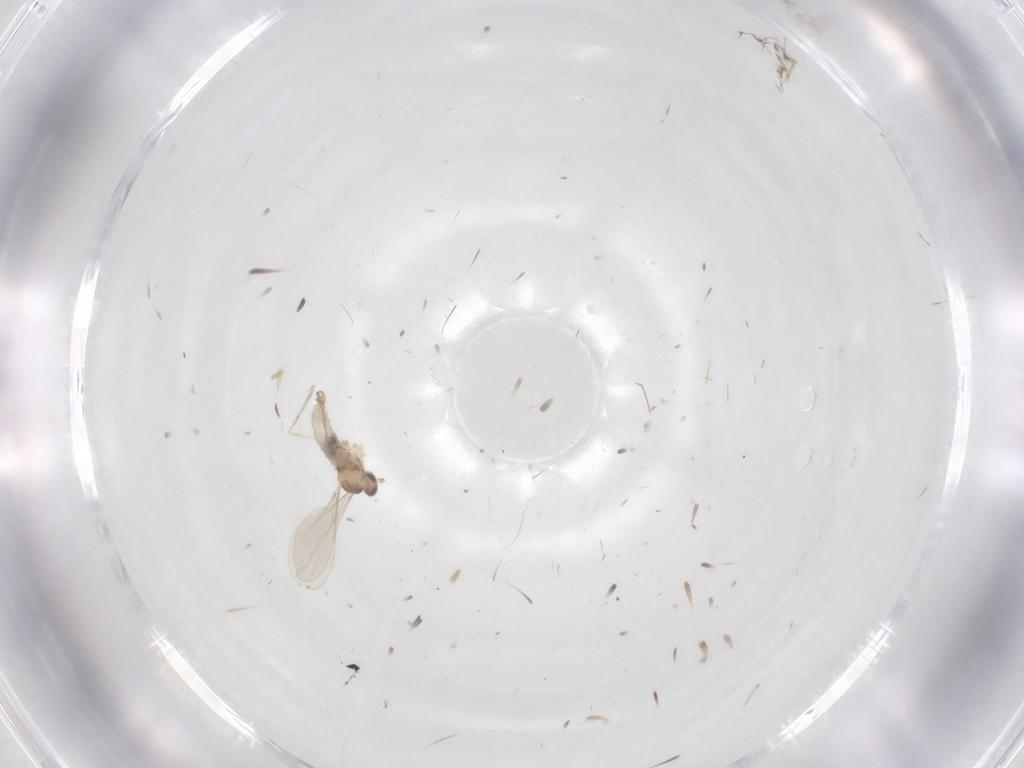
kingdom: Animalia
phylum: Arthropoda
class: Insecta
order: Diptera
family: Cecidomyiidae
